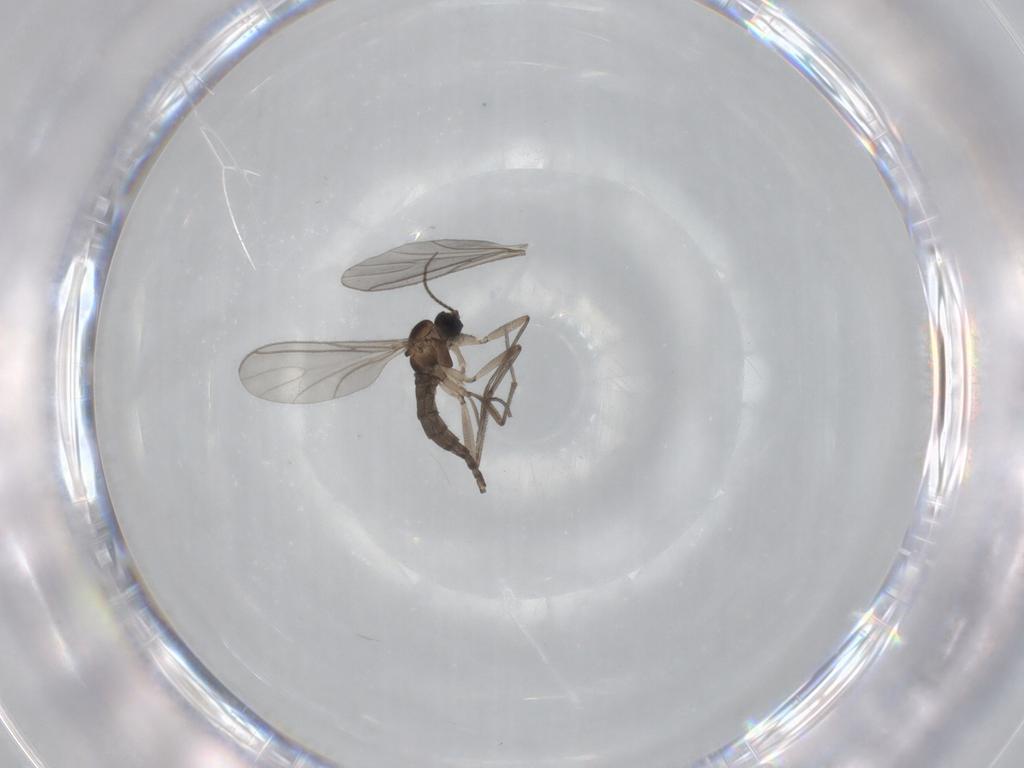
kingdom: Animalia
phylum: Arthropoda
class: Insecta
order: Diptera
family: Sciaridae
